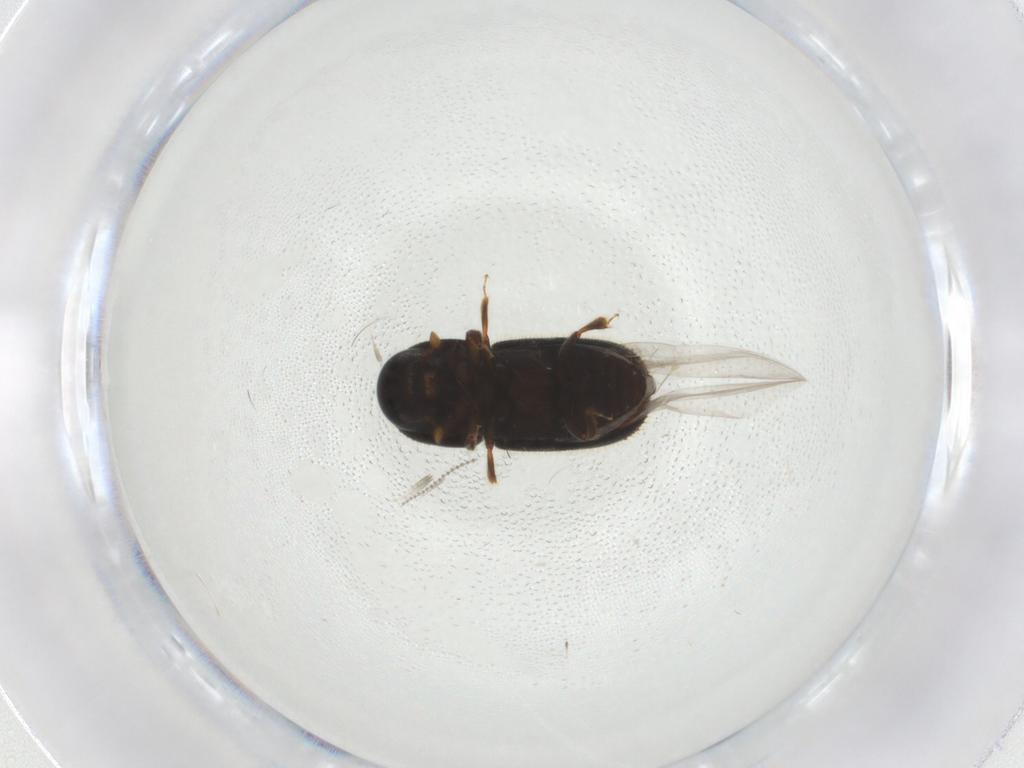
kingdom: Animalia
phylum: Arthropoda
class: Insecta
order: Coleoptera
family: Curculionidae
